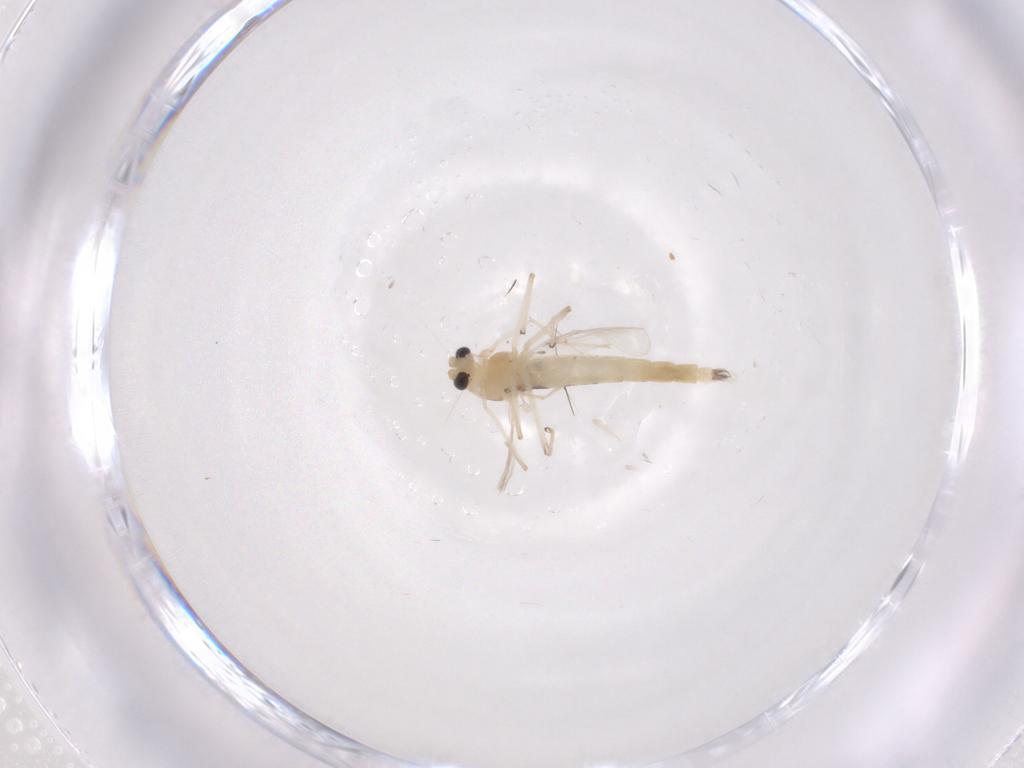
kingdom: Animalia
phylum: Arthropoda
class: Insecta
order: Diptera
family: Chironomidae
